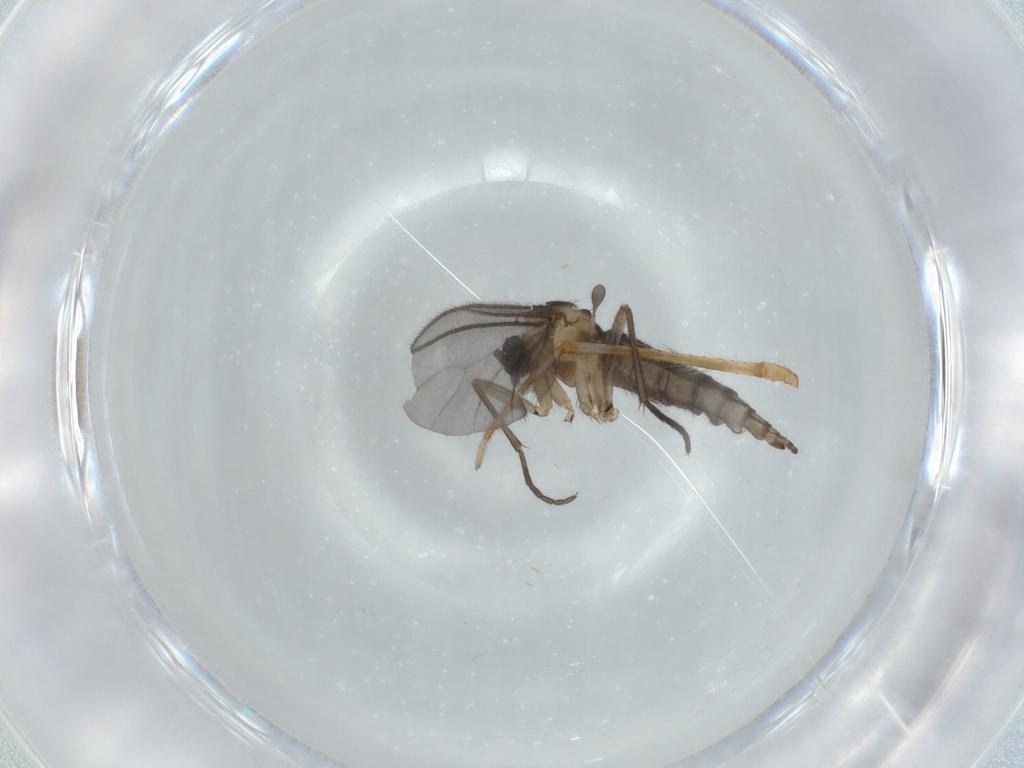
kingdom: Animalia
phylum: Arthropoda
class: Insecta
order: Diptera
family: Sciaridae
